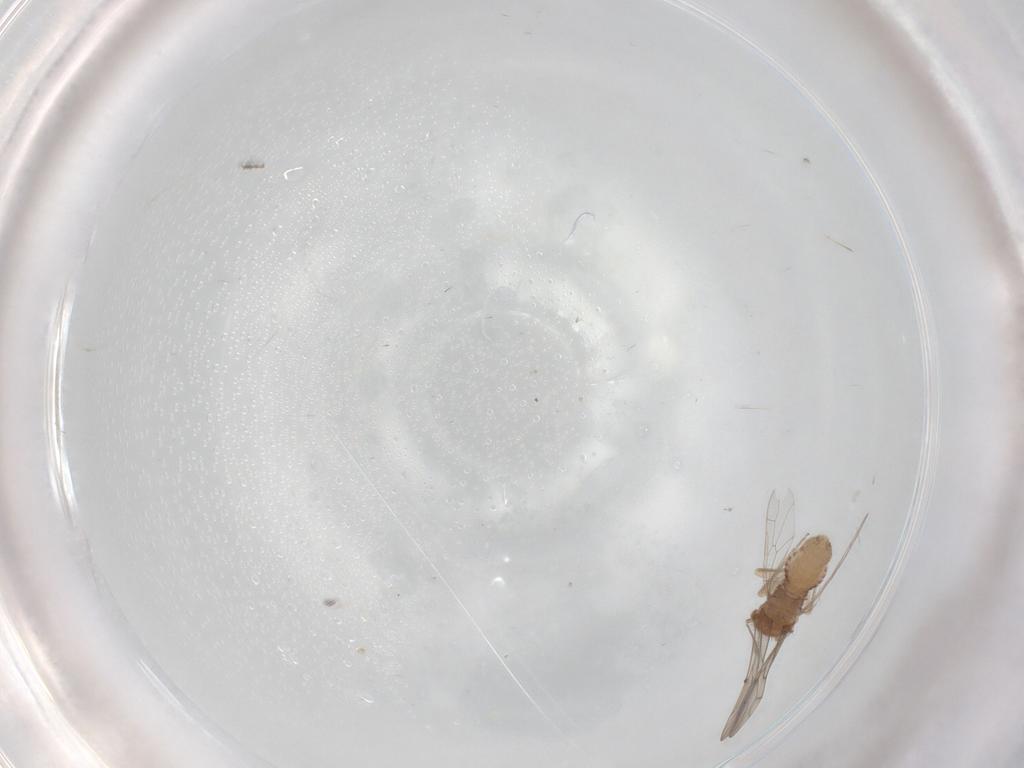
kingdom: Animalia
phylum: Arthropoda
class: Insecta
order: Psocodea
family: Ectopsocidae
